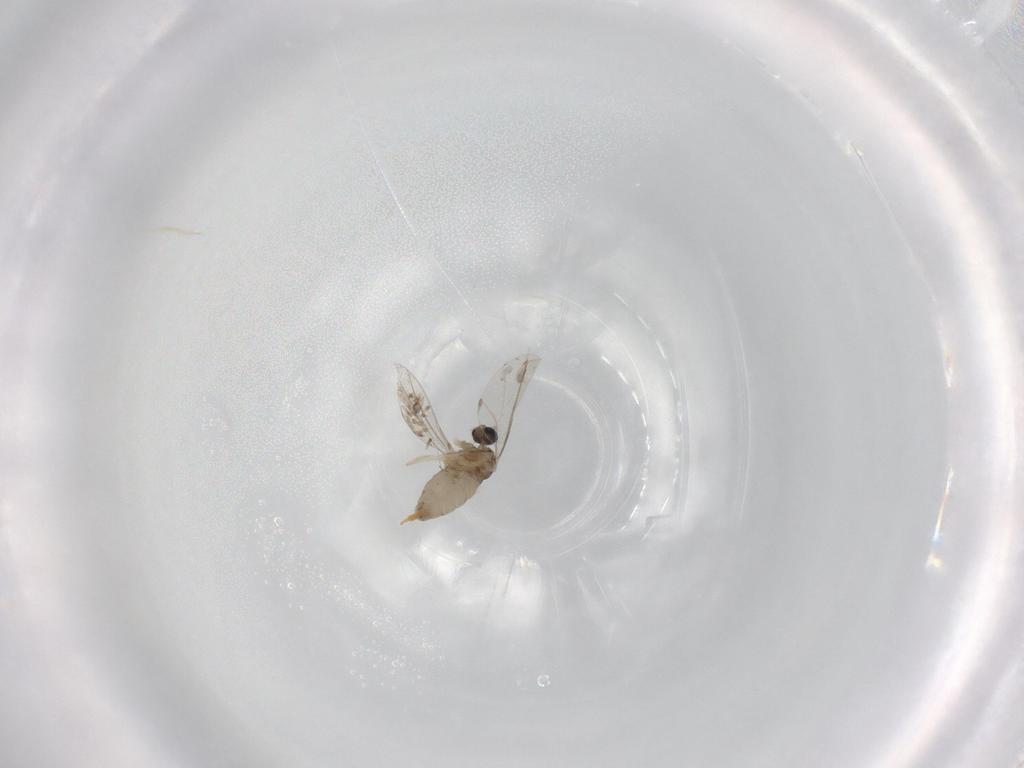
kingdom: Animalia
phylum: Arthropoda
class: Insecta
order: Diptera
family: Cecidomyiidae
